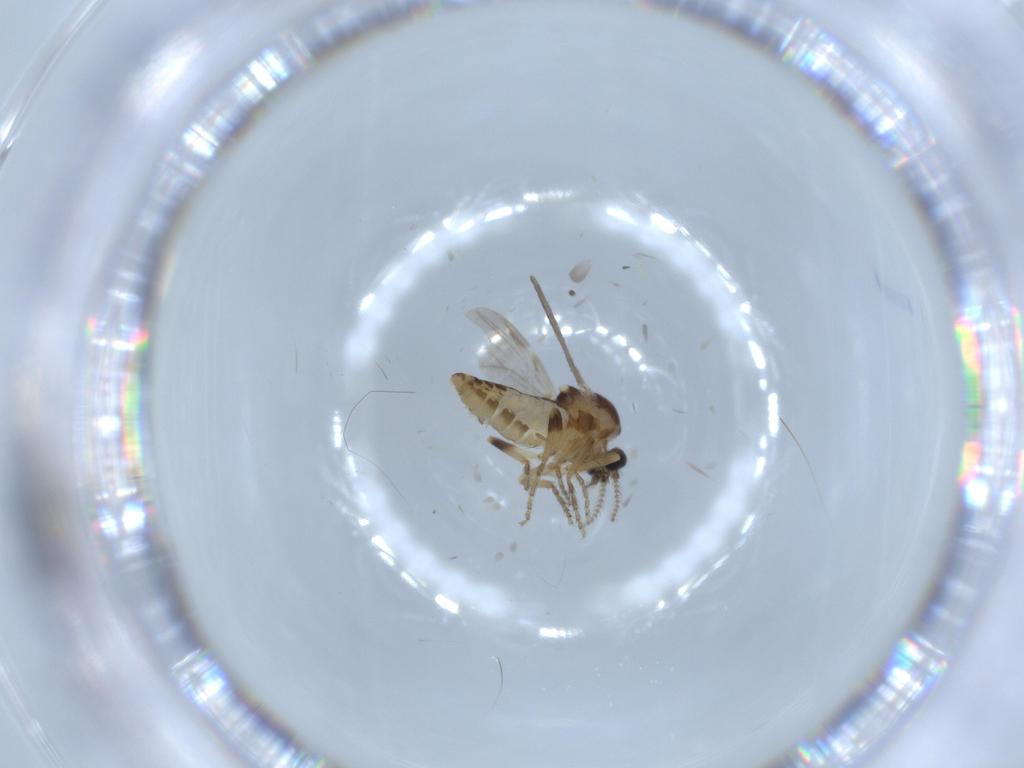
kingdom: Animalia
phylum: Arthropoda
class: Insecta
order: Diptera
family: Ceratopogonidae
